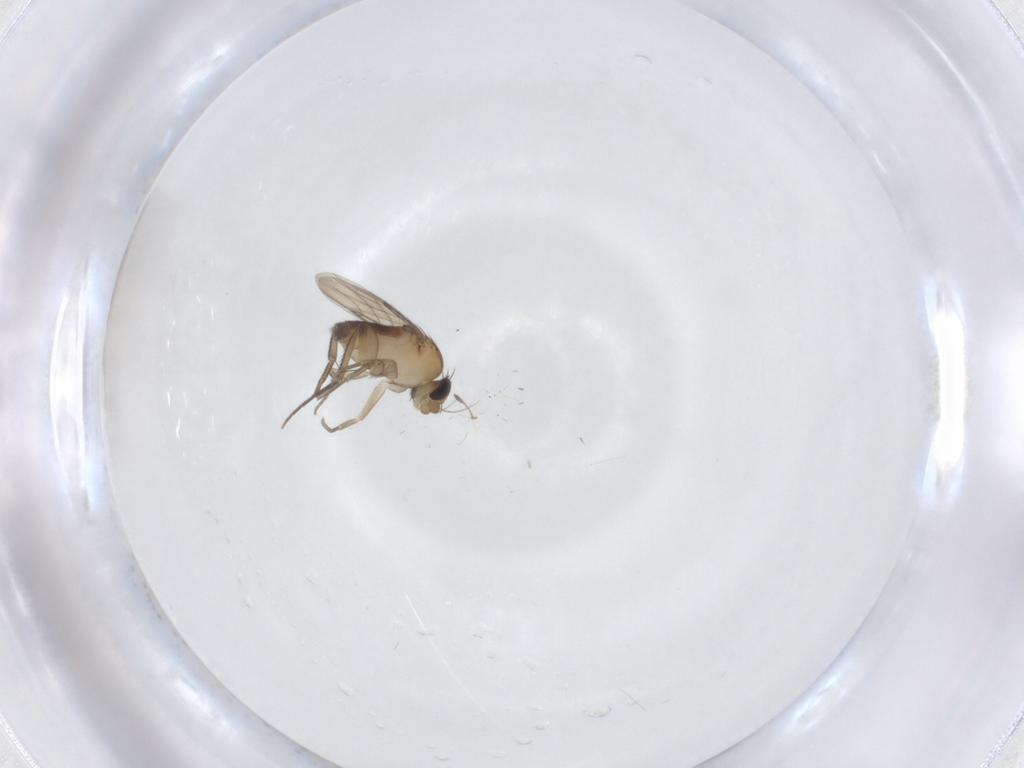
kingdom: Animalia
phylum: Arthropoda
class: Insecta
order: Diptera
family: Phoridae
